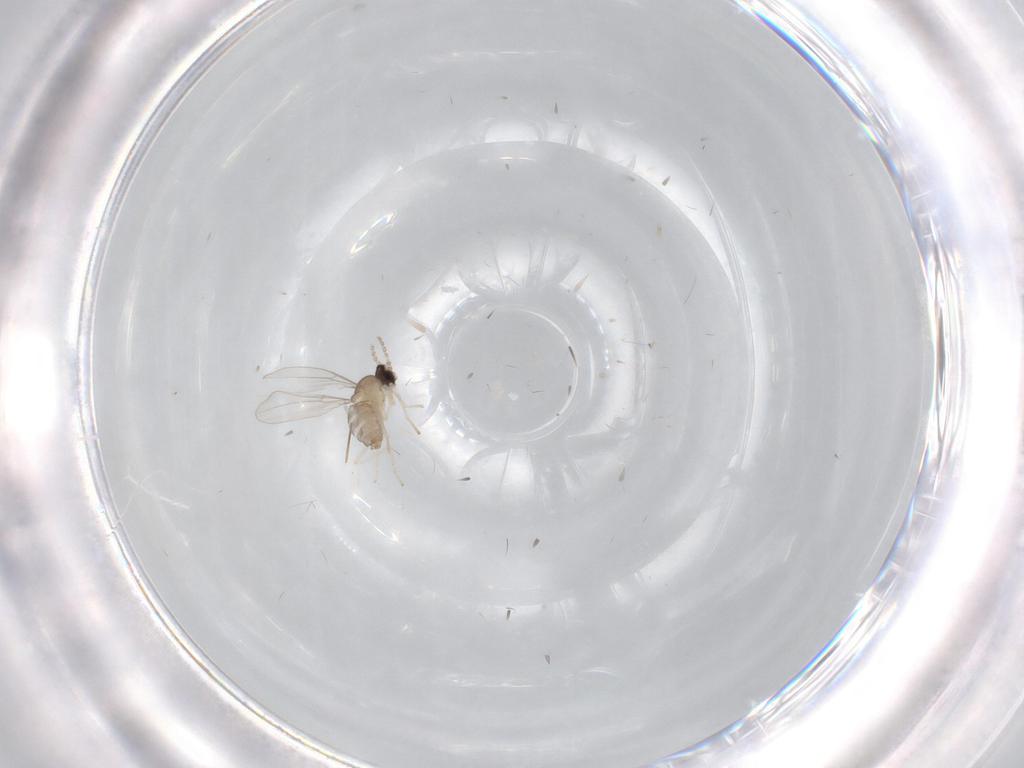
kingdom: Animalia
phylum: Arthropoda
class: Insecta
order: Diptera
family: Cecidomyiidae
